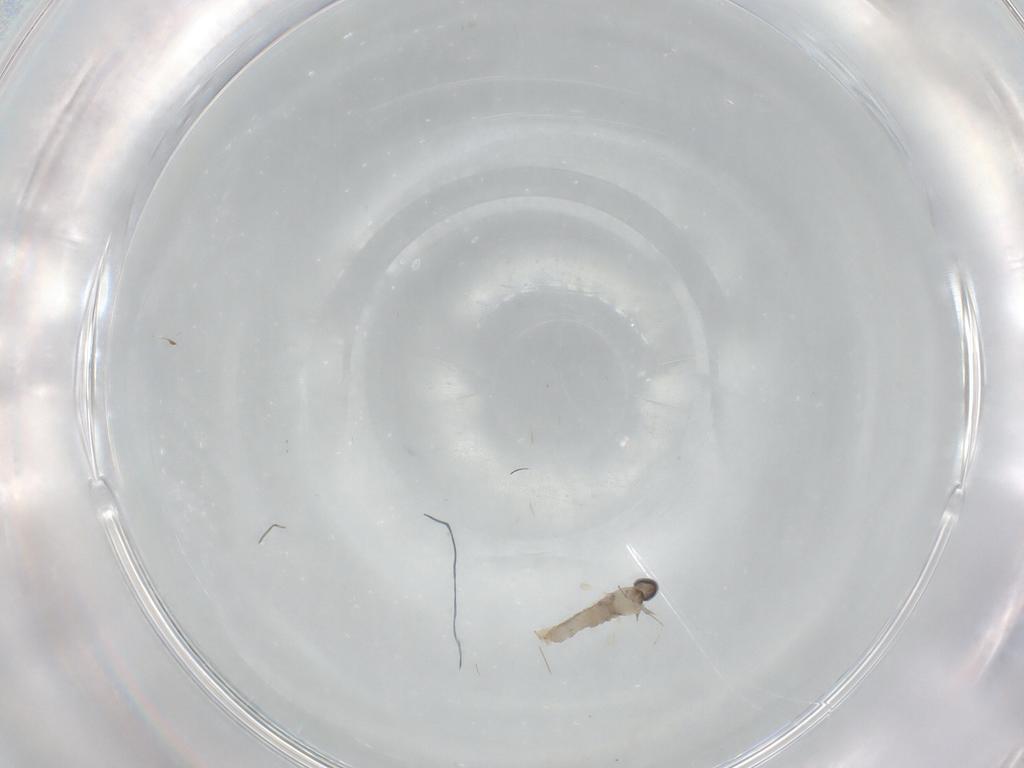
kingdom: Animalia
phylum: Arthropoda
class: Insecta
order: Diptera
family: Cecidomyiidae
